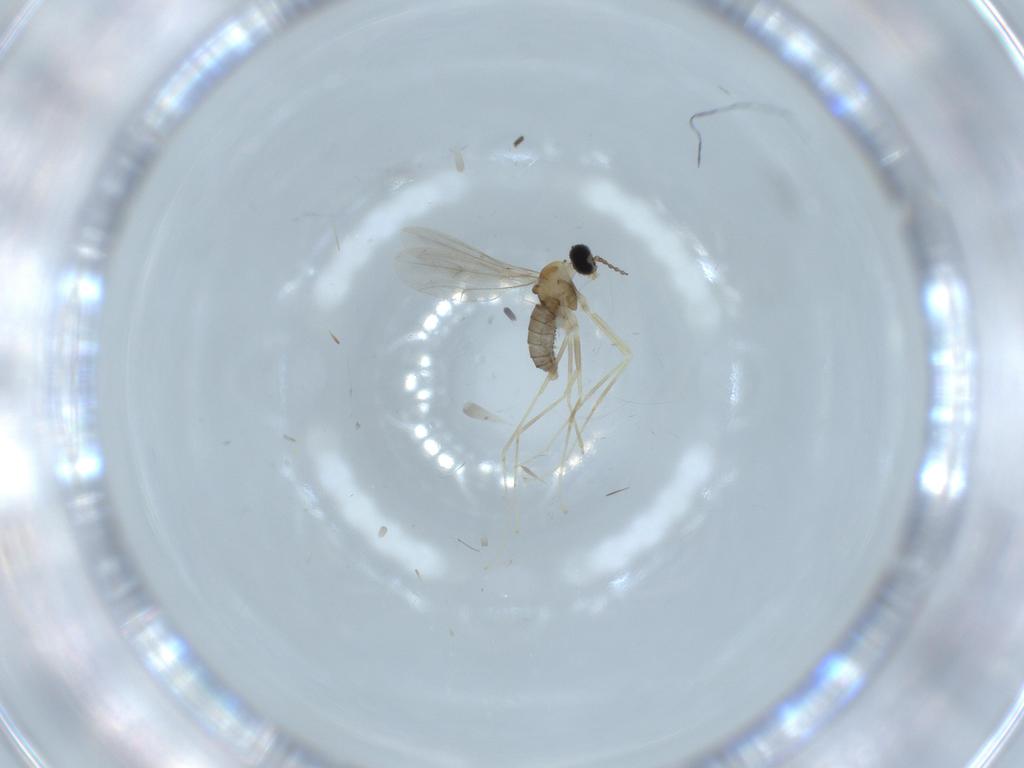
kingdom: Animalia
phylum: Arthropoda
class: Insecta
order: Diptera
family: Cecidomyiidae
